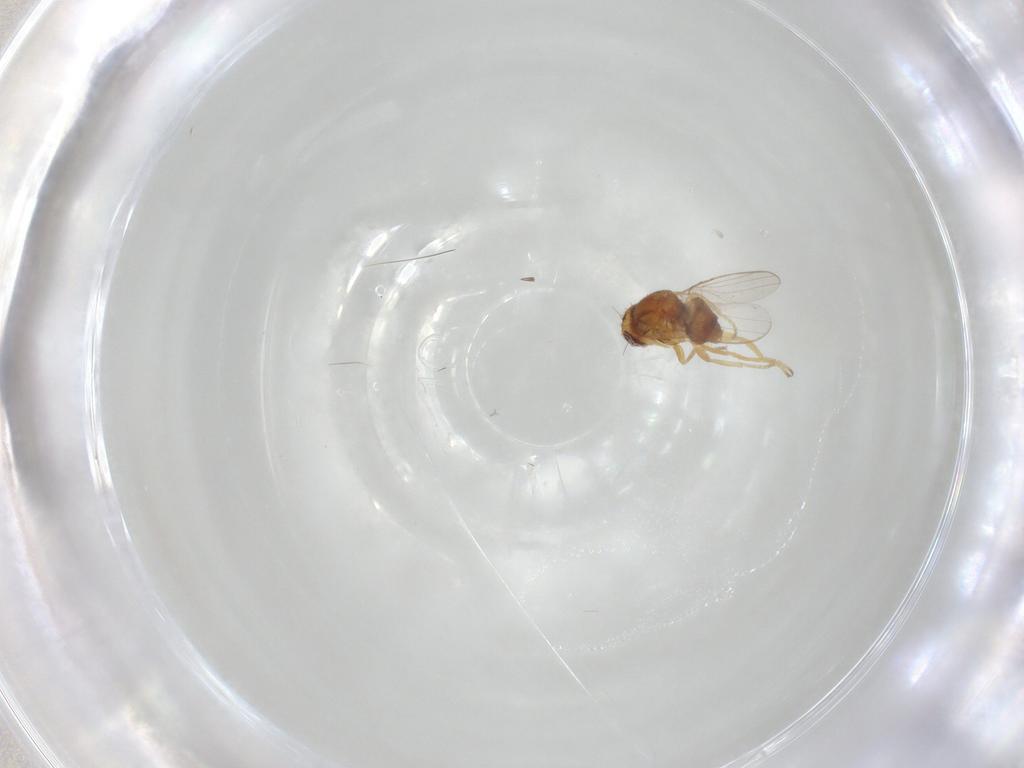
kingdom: Animalia
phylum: Arthropoda
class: Insecta
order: Diptera
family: Chloropidae
